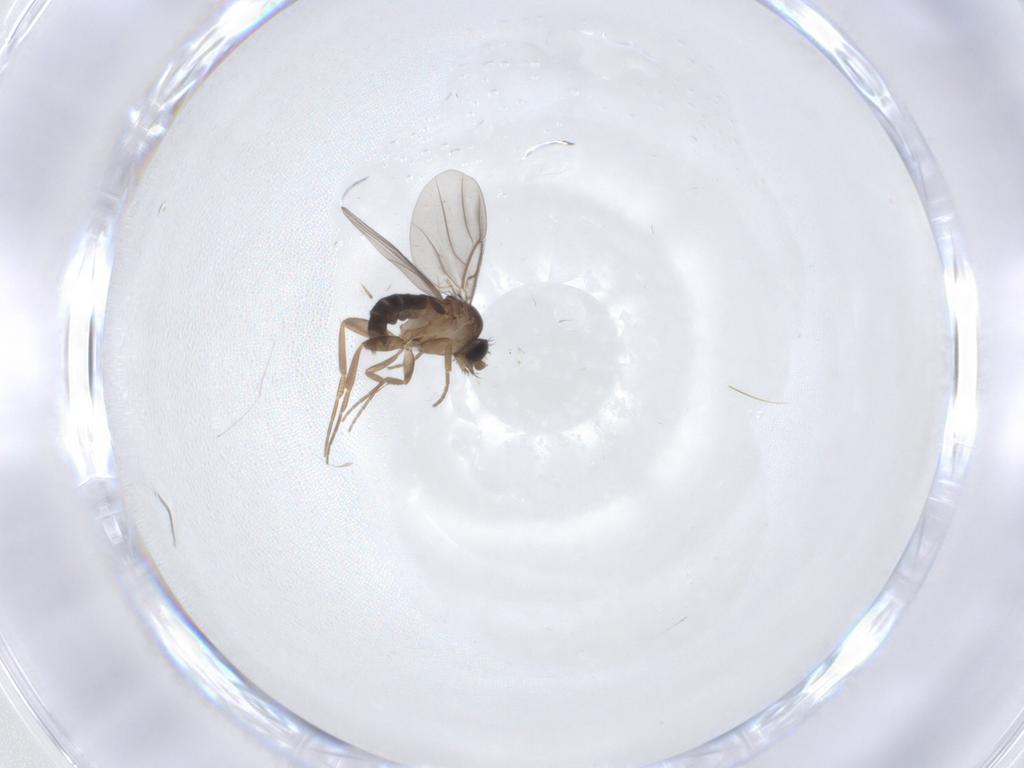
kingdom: Animalia
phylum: Arthropoda
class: Insecta
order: Diptera
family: Sphaeroceridae
